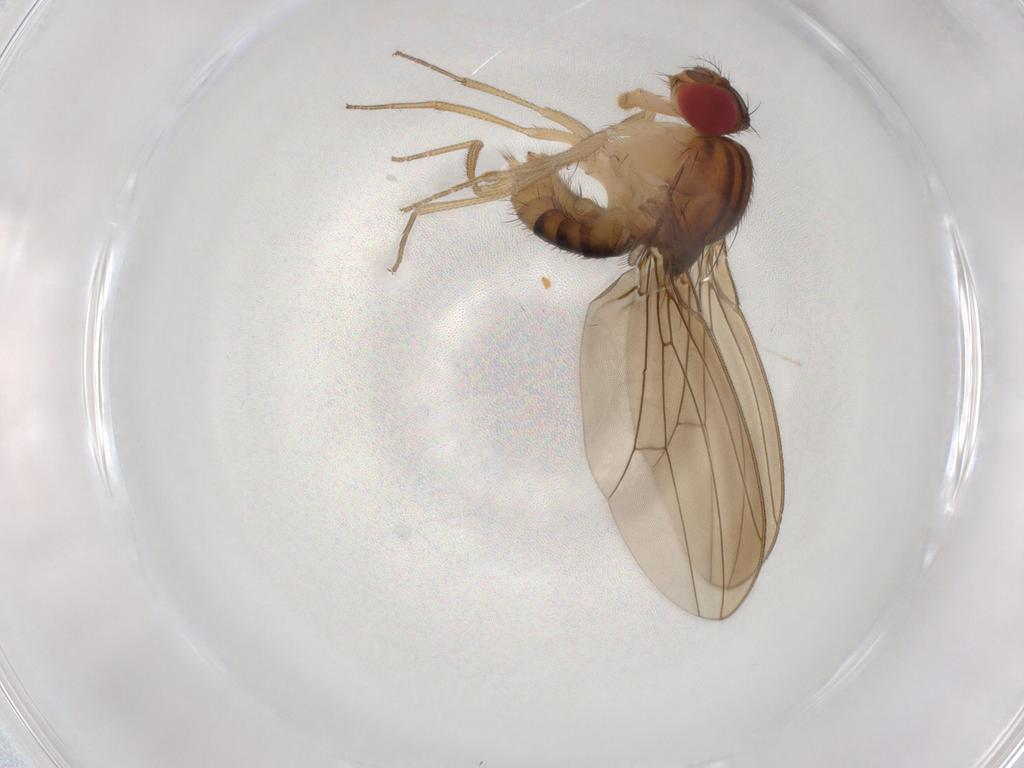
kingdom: Animalia
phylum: Arthropoda
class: Insecta
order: Diptera
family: Drosophilidae
